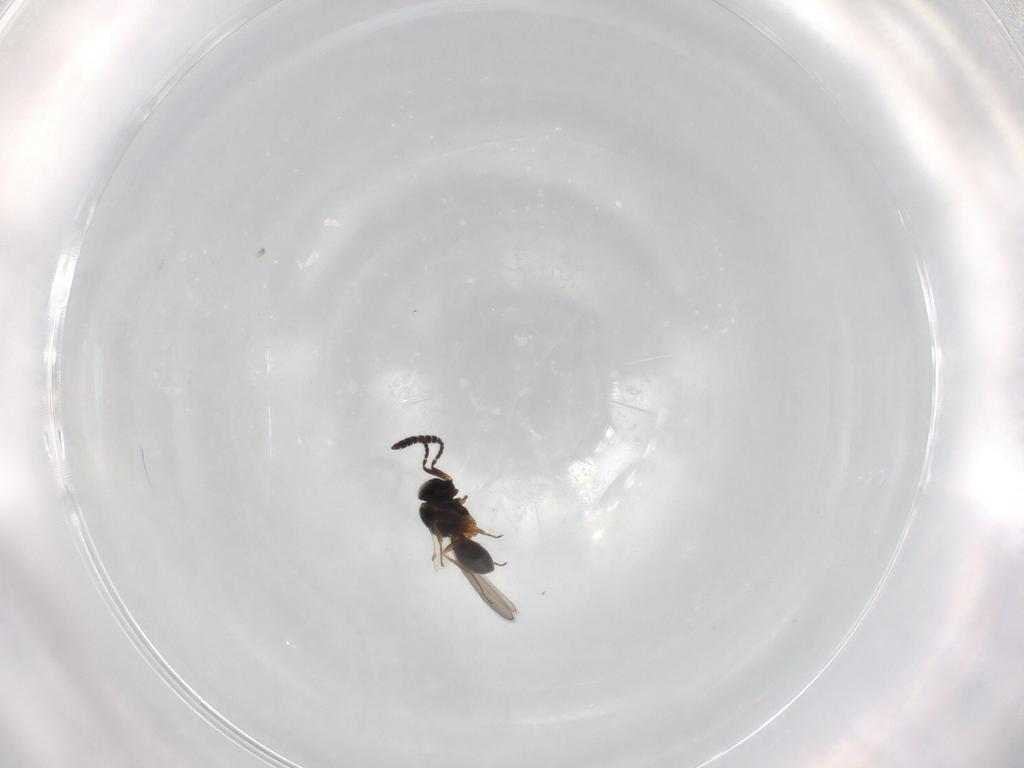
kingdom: Animalia
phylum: Arthropoda
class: Insecta
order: Hymenoptera
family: Scelionidae
